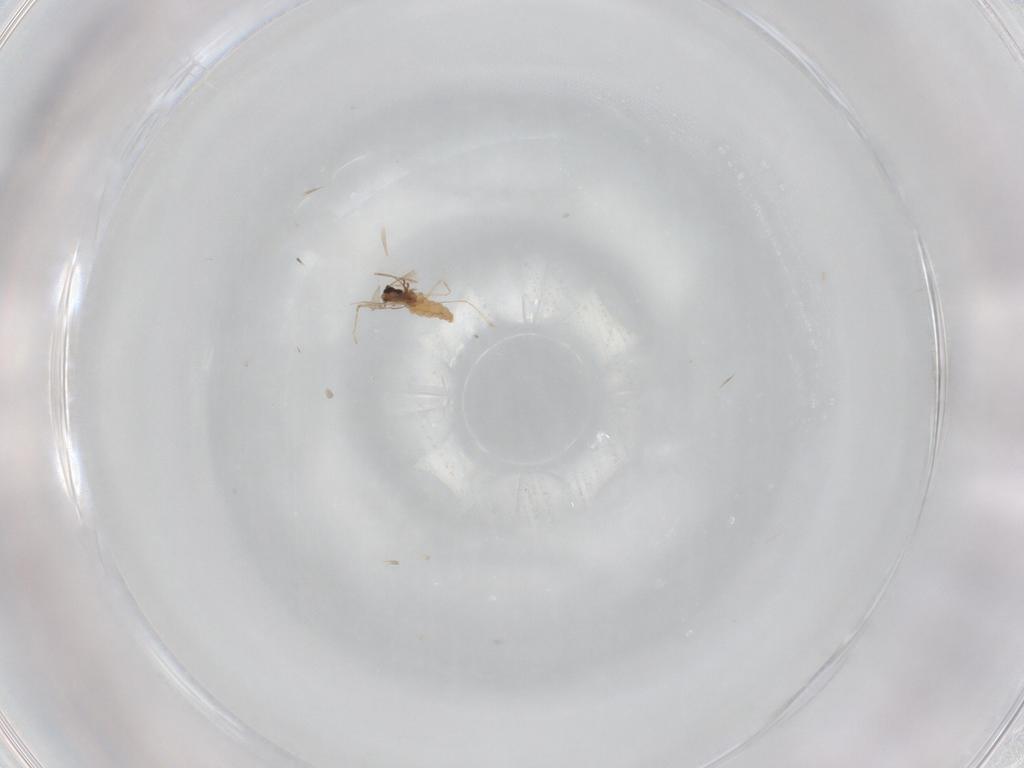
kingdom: Animalia
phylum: Arthropoda
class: Insecta
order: Diptera
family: Cecidomyiidae
